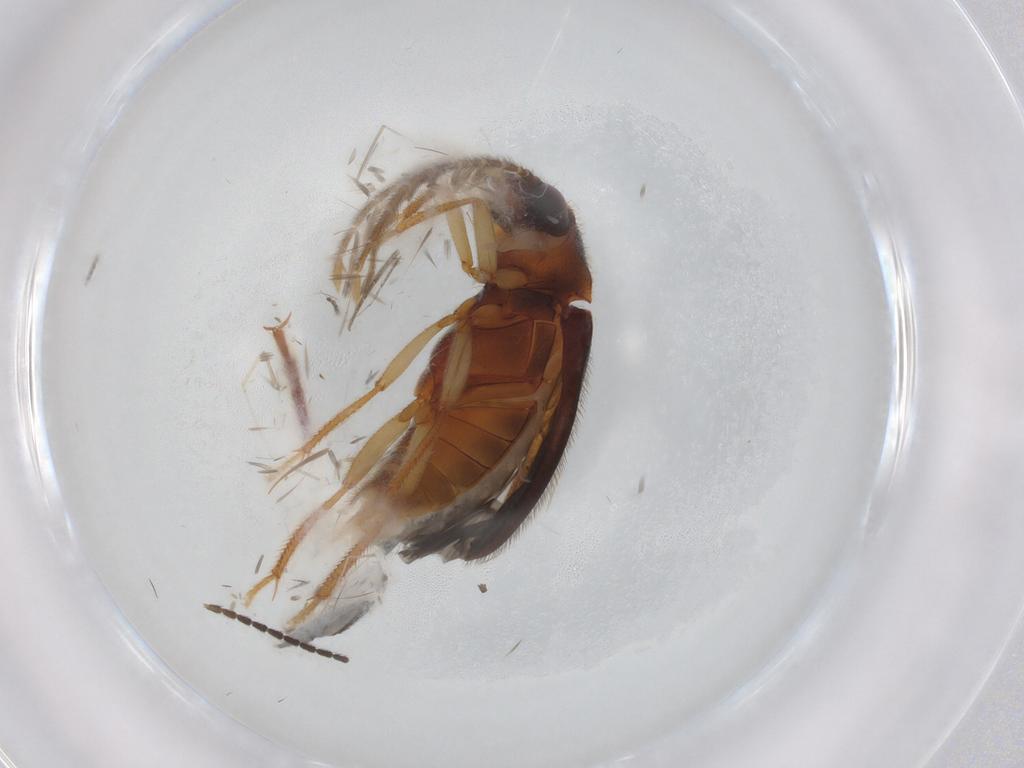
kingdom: Animalia
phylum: Arthropoda
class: Insecta
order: Coleoptera
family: Ptilodactylidae
